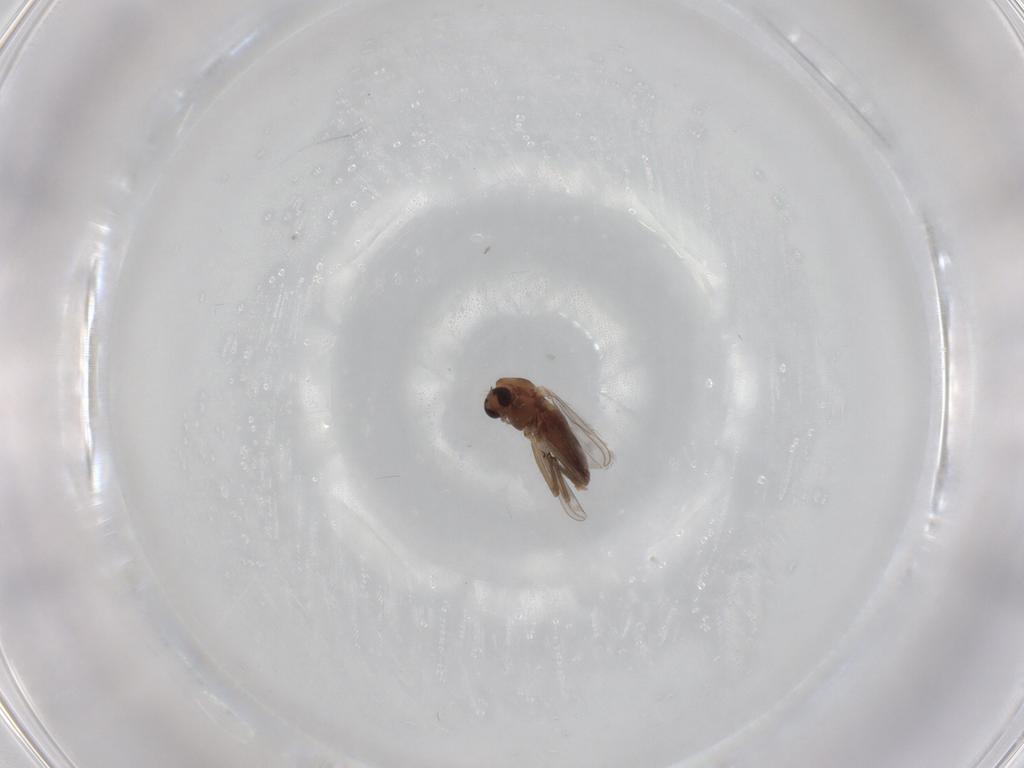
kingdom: Animalia
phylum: Arthropoda
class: Insecta
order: Diptera
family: Chironomidae
